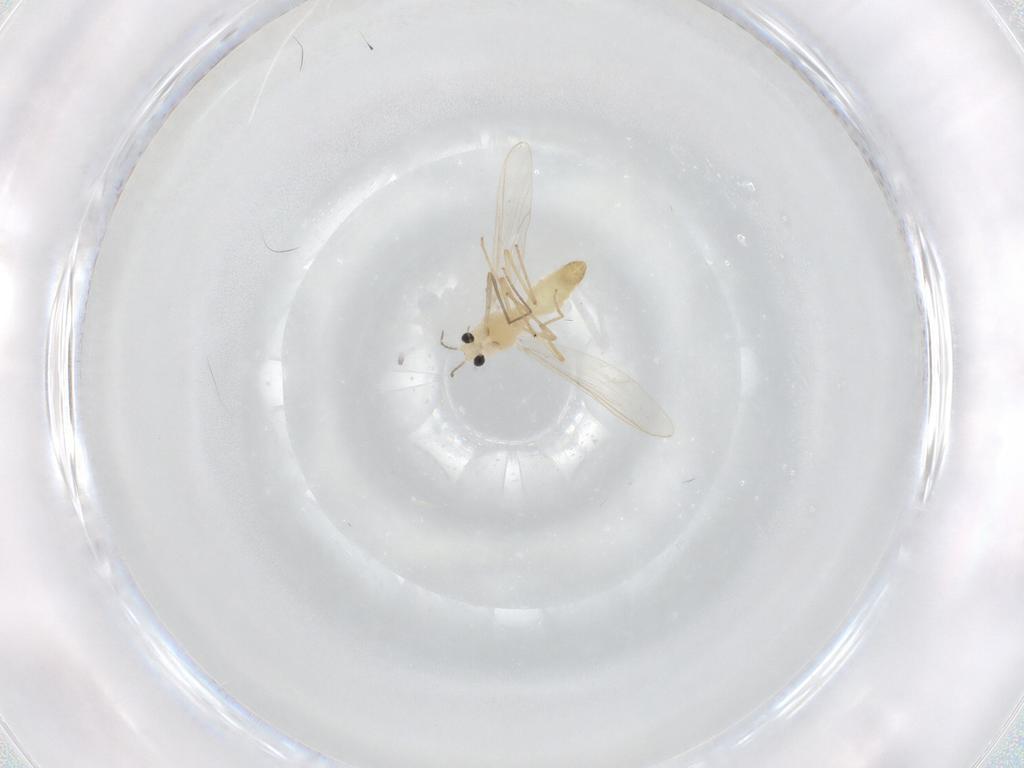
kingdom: Animalia
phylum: Arthropoda
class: Insecta
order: Diptera
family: Chironomidae
